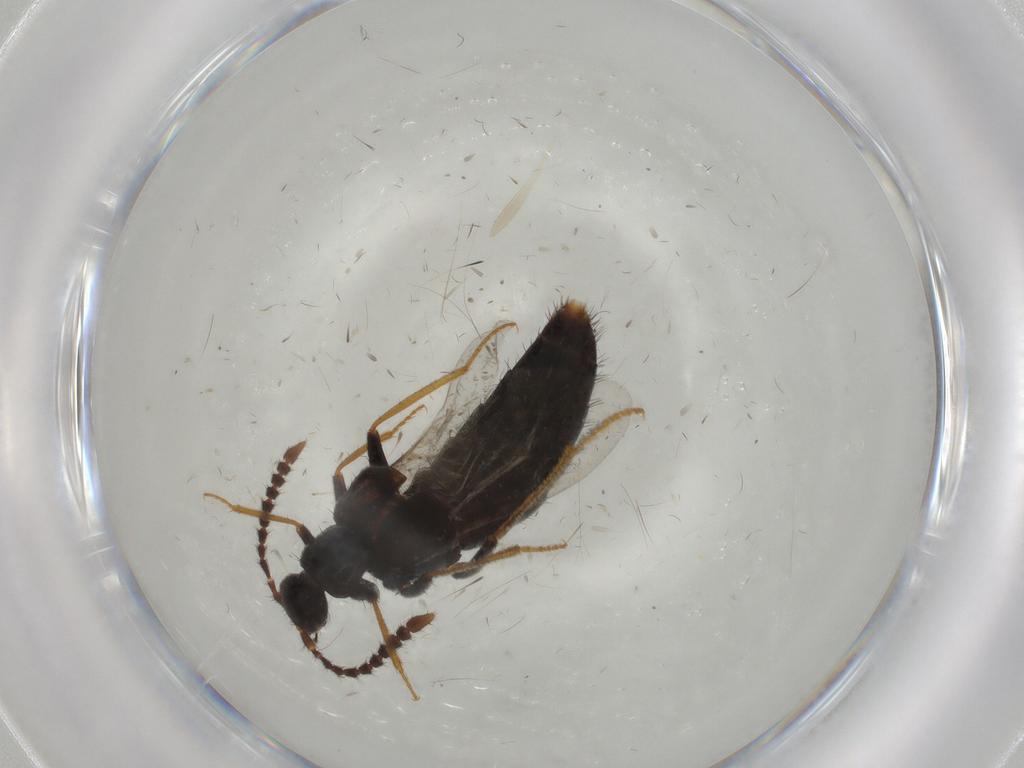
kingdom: Animalia
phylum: Arthropoda
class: Insecta
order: Coleoptera
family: Staphylinidae
